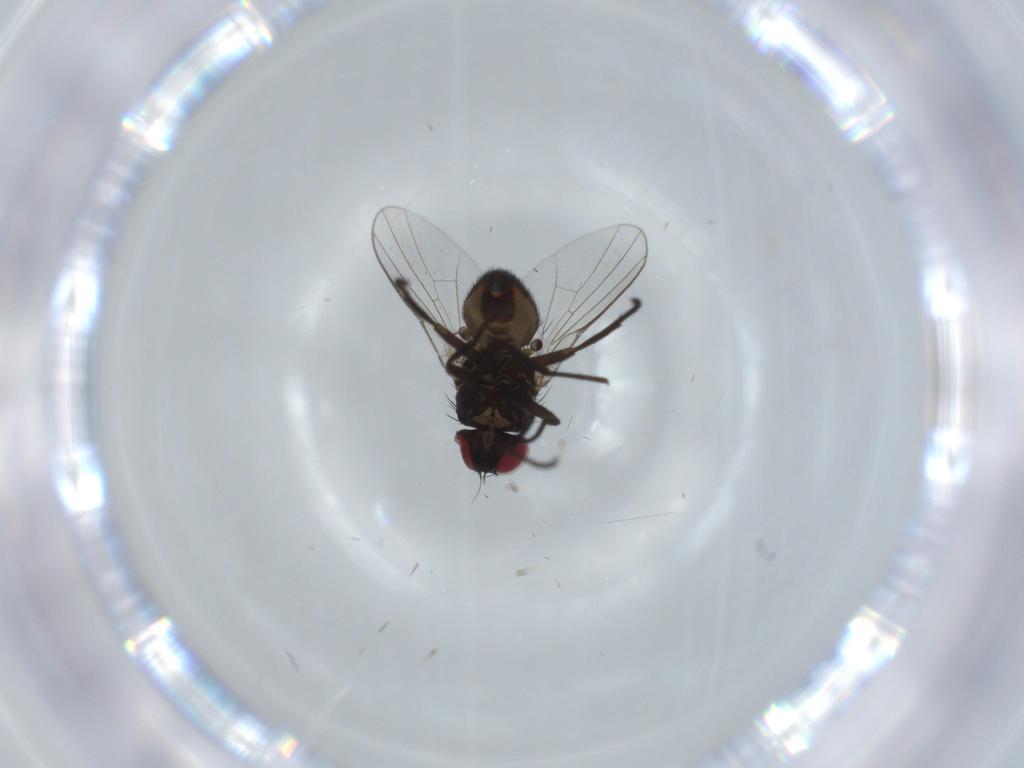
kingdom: Animalia
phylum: Arthropoda
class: Insecta
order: Diptera
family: Agromyzidae
